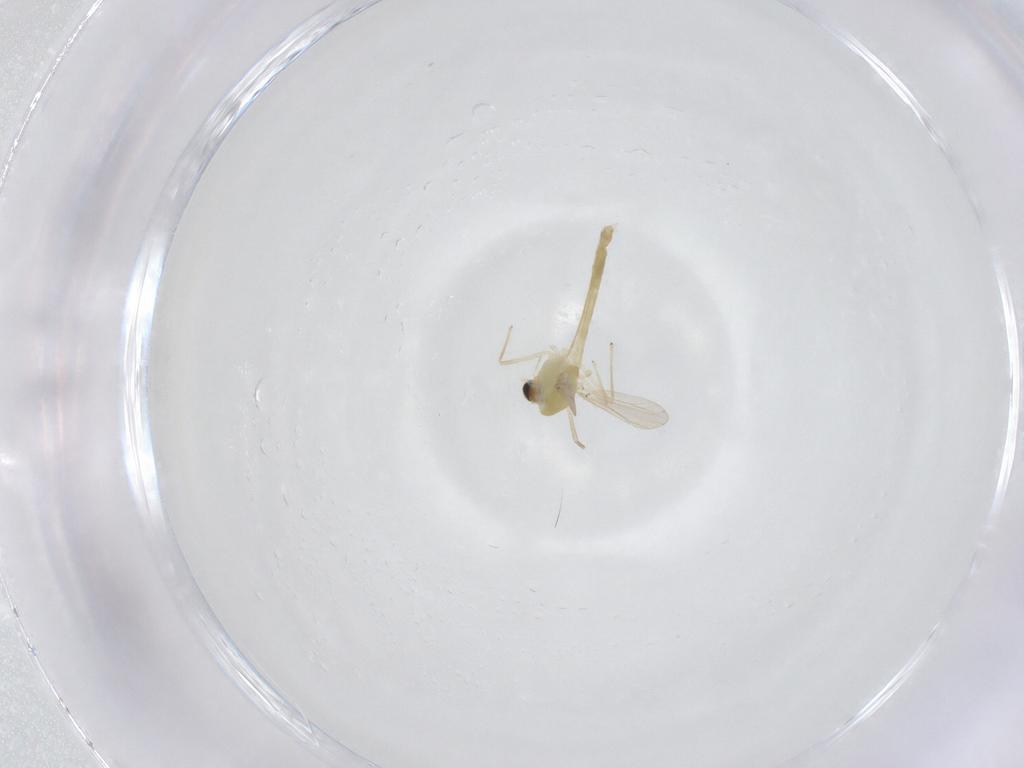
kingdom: Animalia
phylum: Arthropoda
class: Insecta
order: Diptera
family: Chironomidae
